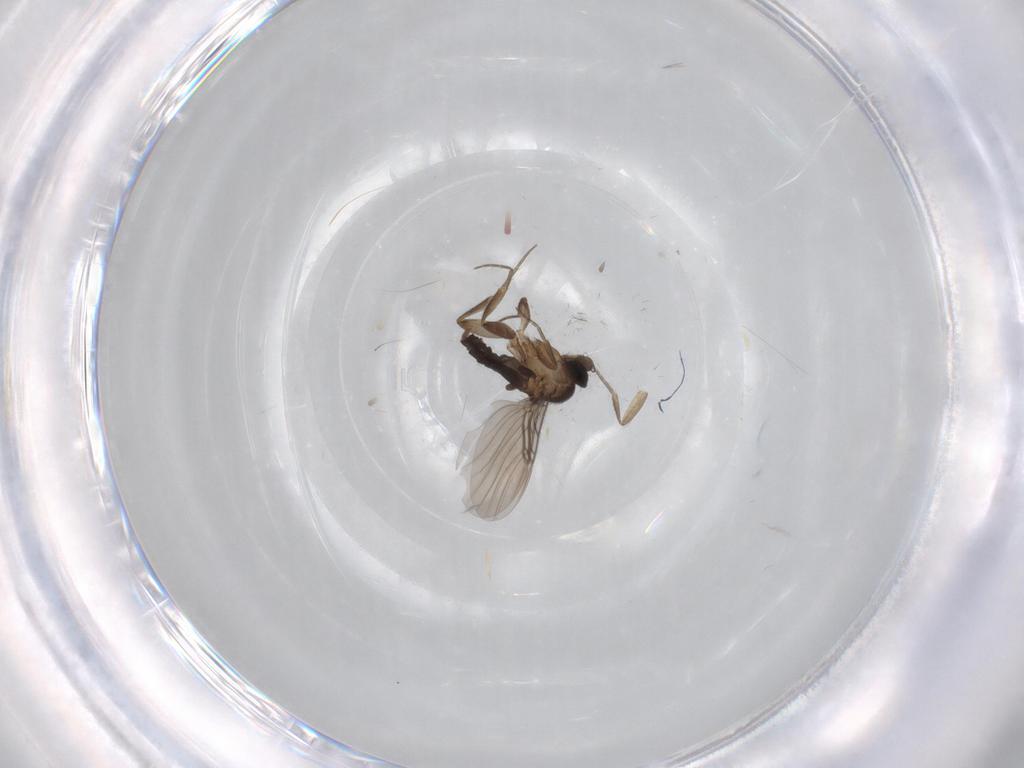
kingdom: Animalia
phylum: Arthropoda
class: Insecta
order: Diptera
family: Sciaridae
